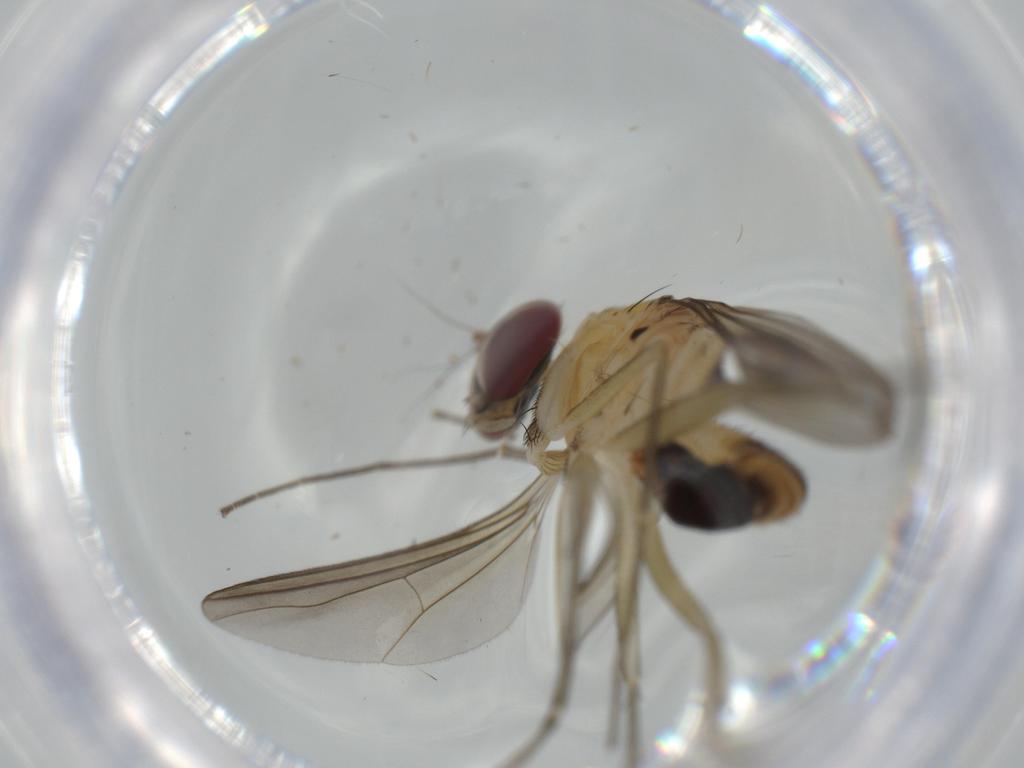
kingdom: Animalia
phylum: Arthropoda
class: Insecta
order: Diptera
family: Dolichopodidae
